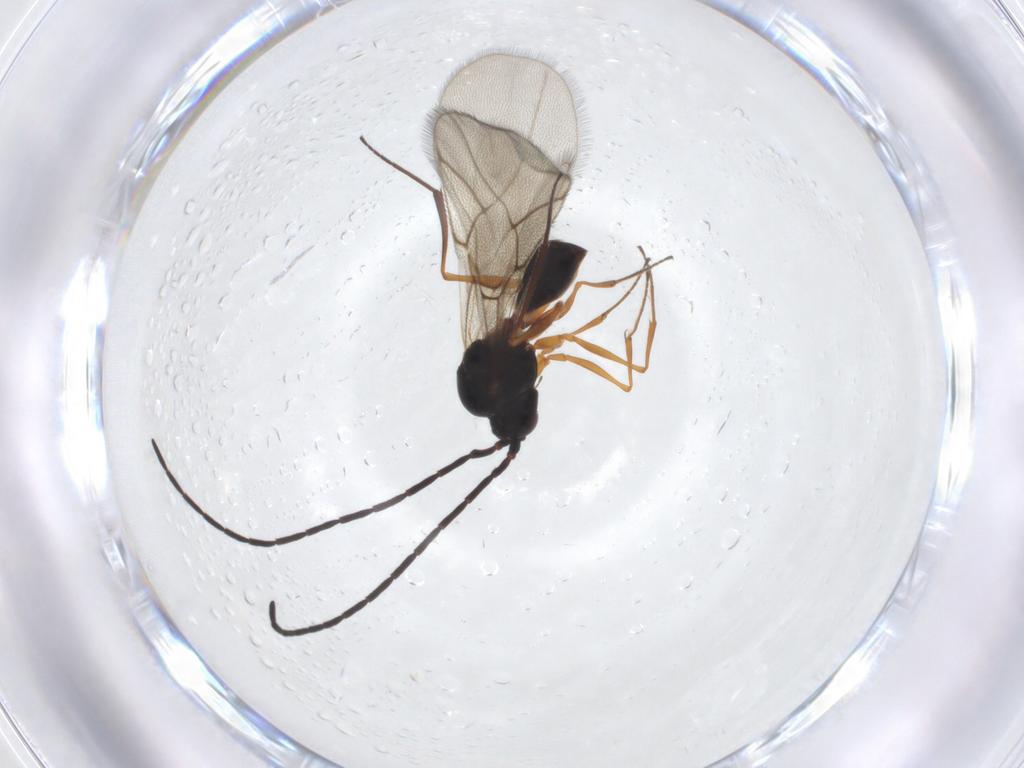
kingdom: Animalia
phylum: Arthropoda
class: Insecta
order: Hymenoptera
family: Figitidae
